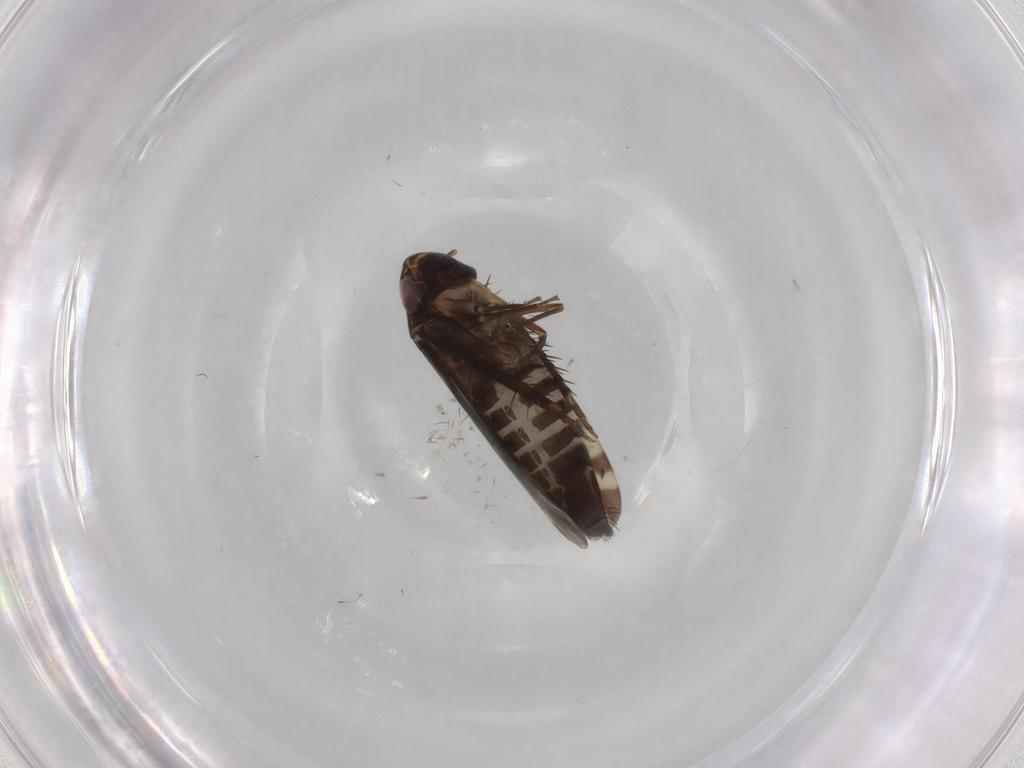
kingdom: Animalia
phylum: Arthropoda
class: Insecta
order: Hemiptera
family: Cicadellidae
